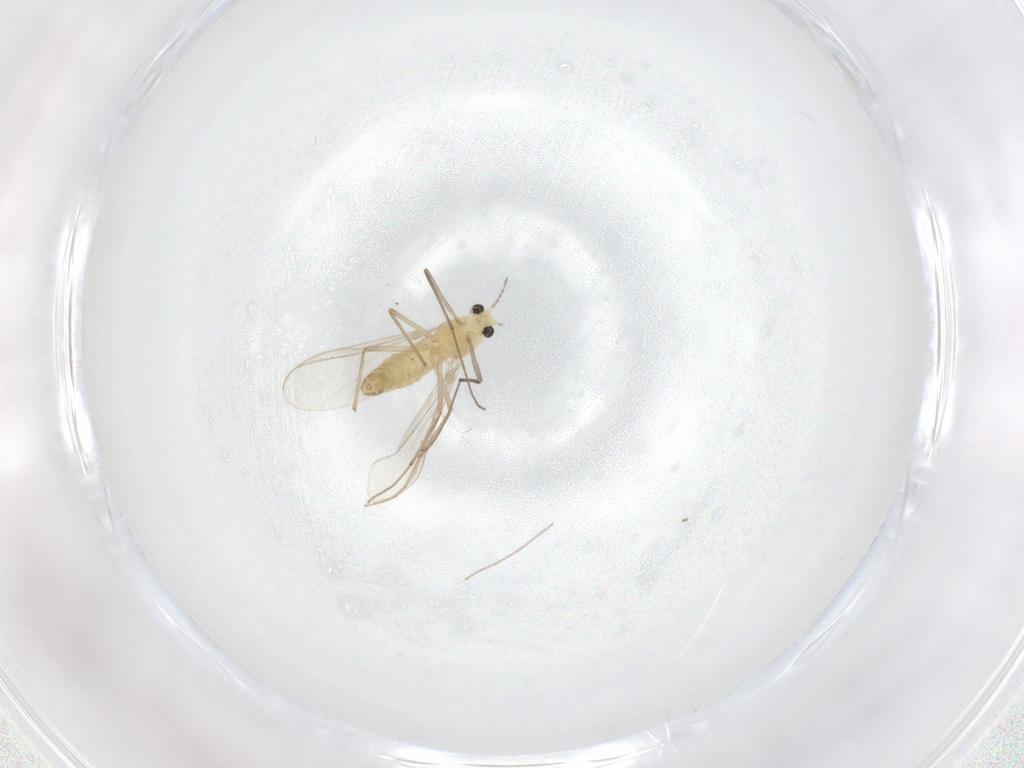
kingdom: Animalia
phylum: Arthropoda
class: Insecta
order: Diptera
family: Chironomidae
